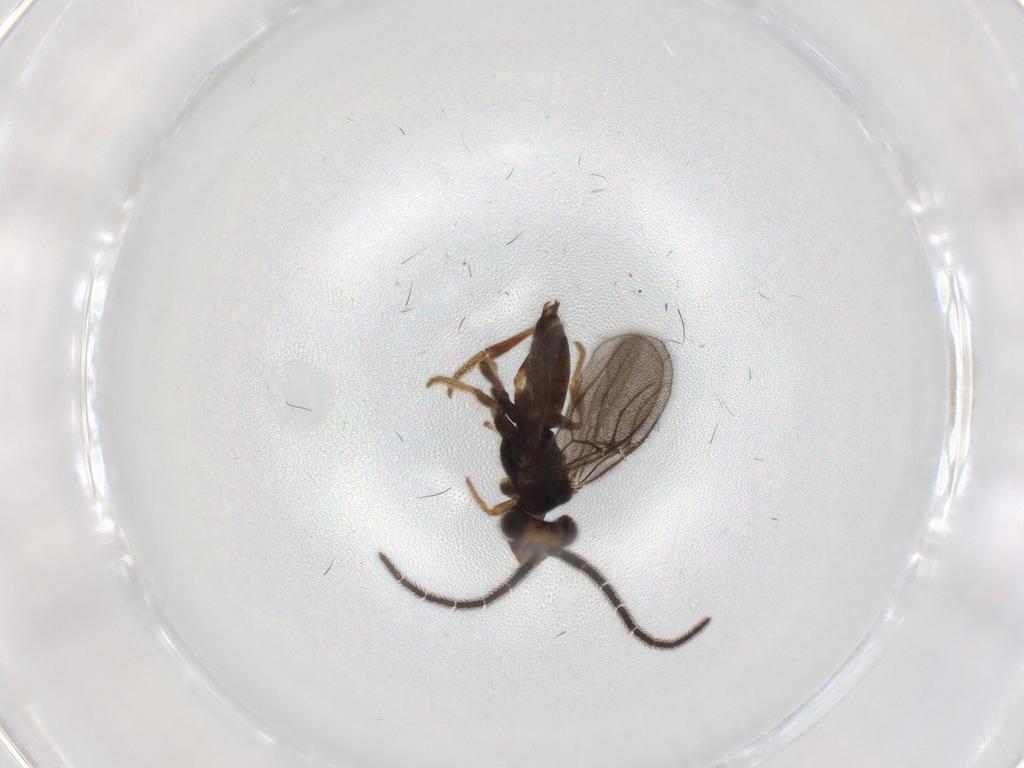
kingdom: Animalia
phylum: Arthropoda
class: Insecta
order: Hymenoptera
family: Dryinidae
